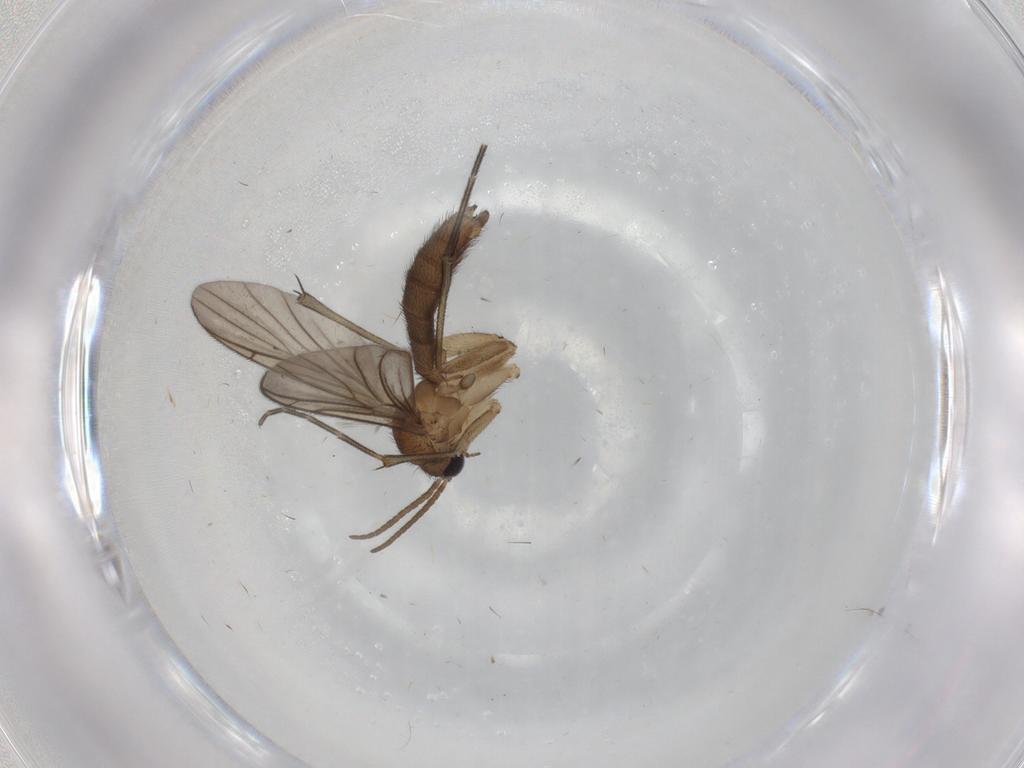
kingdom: Animalia
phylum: Arthropoda
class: Insecta
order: Diptera
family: Keroplatidae
